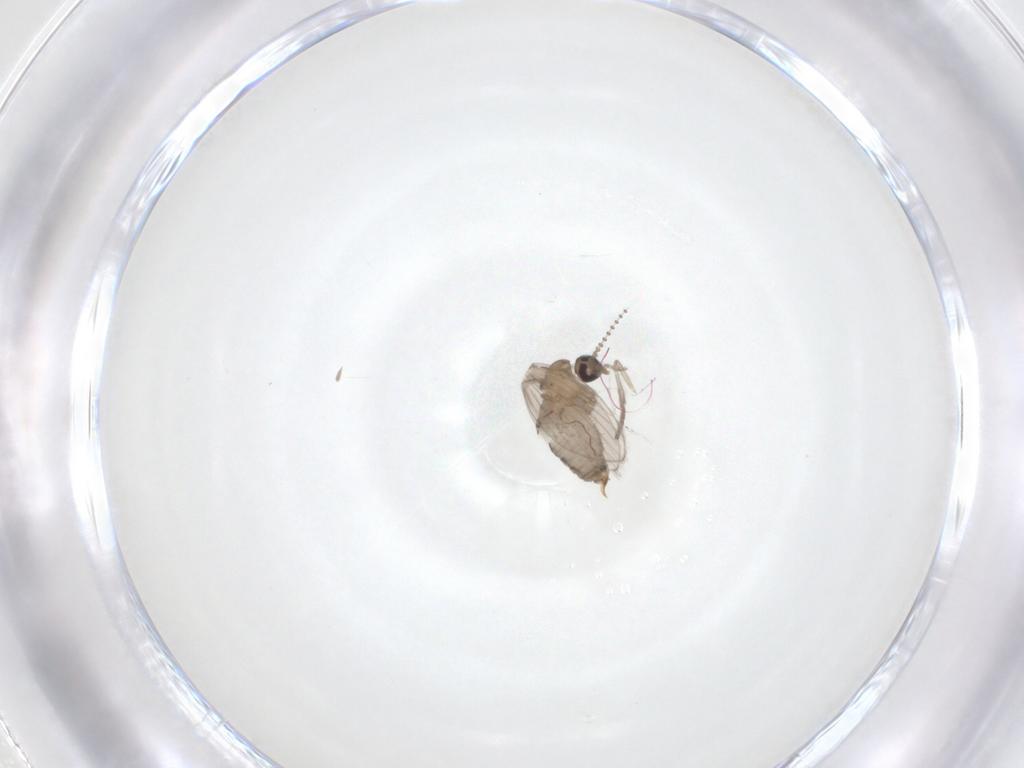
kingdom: Animalia
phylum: Arthropoda
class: Insecta
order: Diptera
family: Psychodidae
